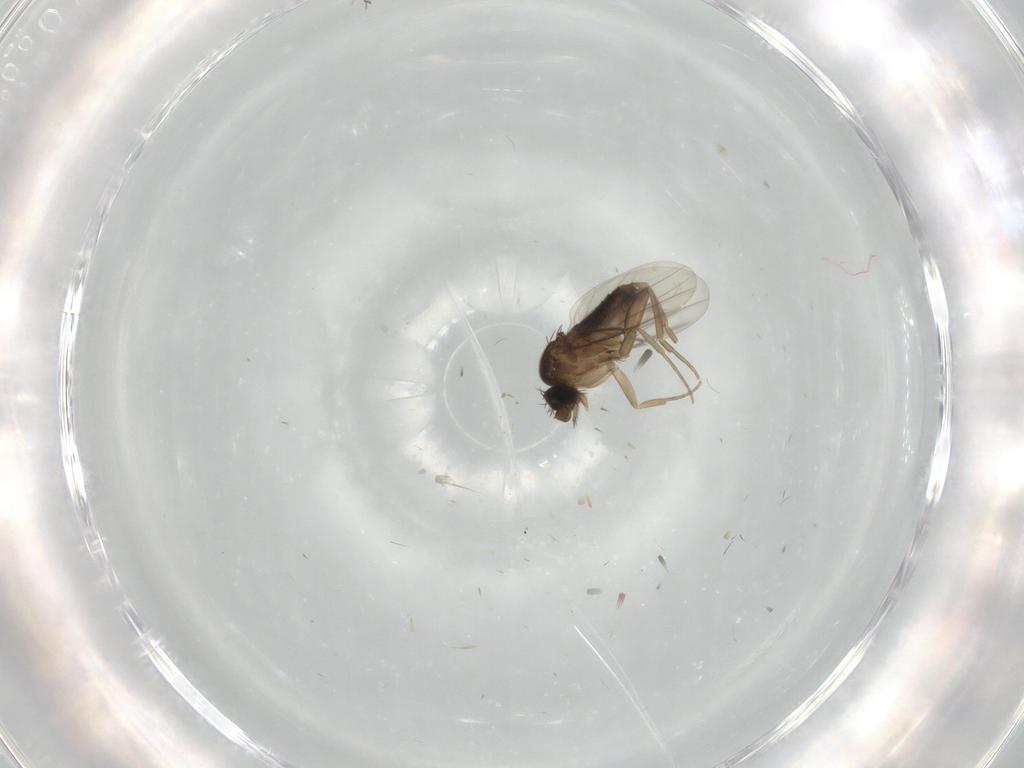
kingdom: Animalia
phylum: Arthropoda
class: Insecta
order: Diptera
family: Phoridae
